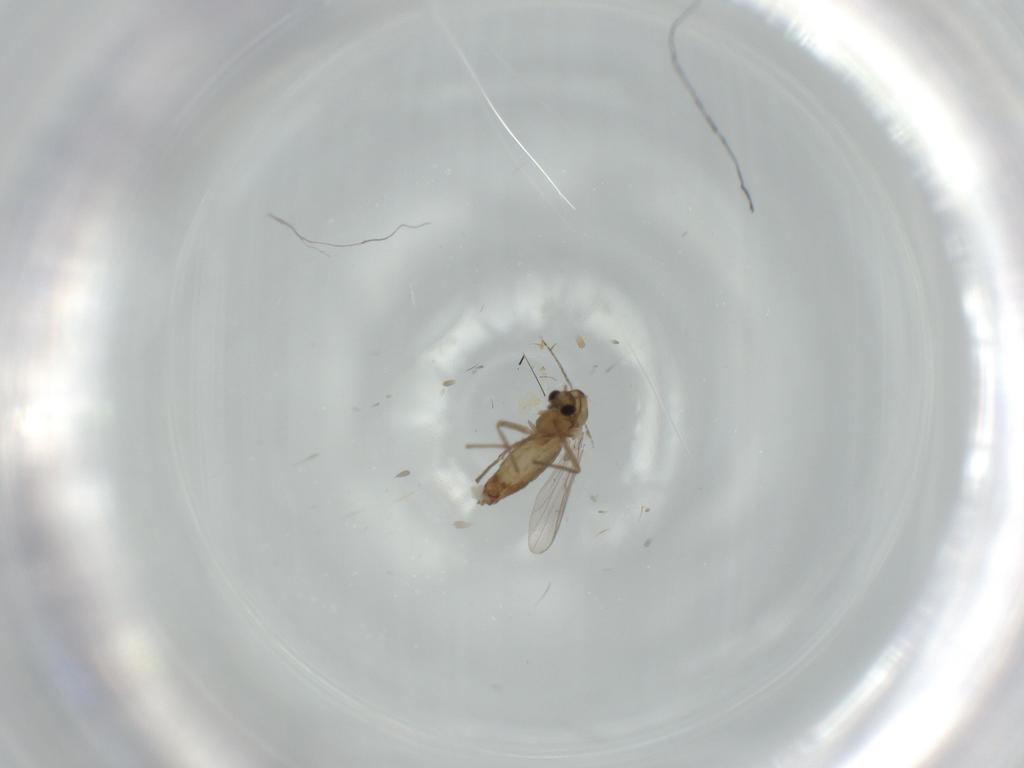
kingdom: Animalia
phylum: Arthropoda
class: Insecta
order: Diptera
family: Chironomidae
